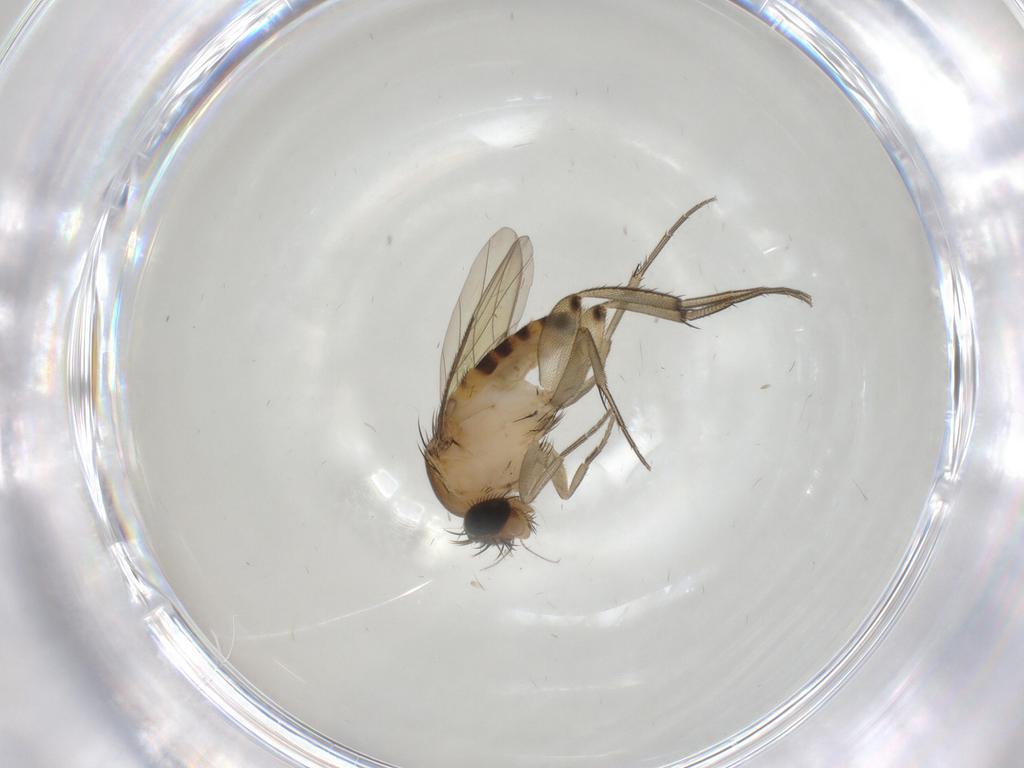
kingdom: Animalia
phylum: Arthropoda
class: Insecta
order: Diptera
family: Phoridae
